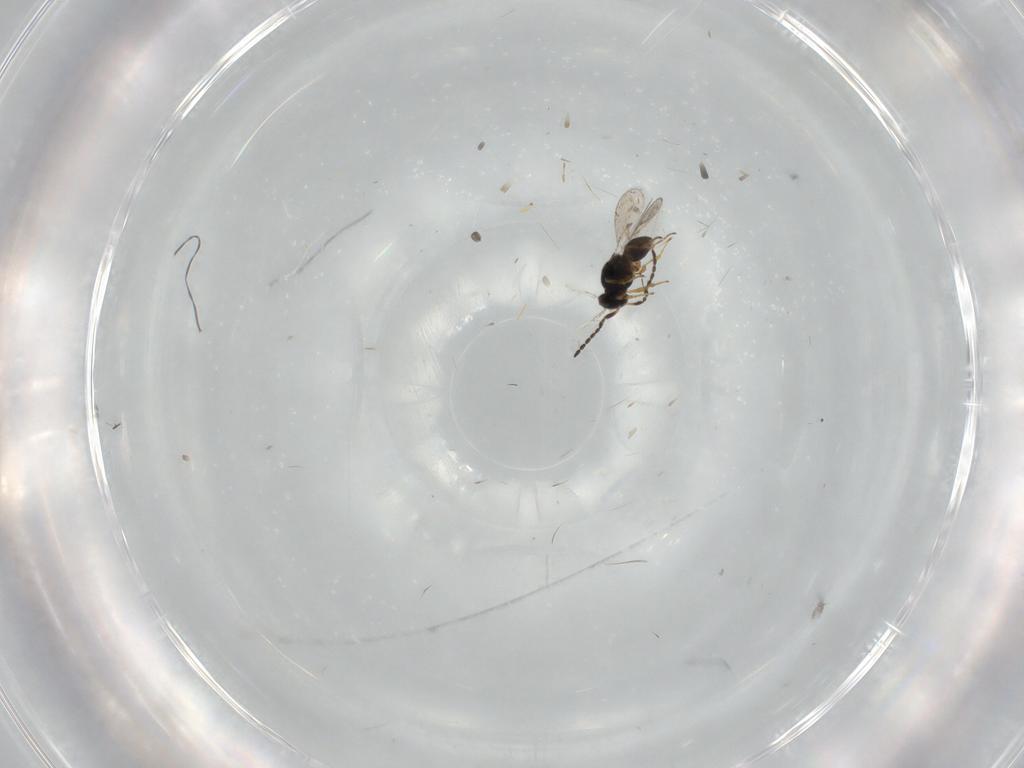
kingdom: Animalia
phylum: Arthropoda
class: Insecta
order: Hymenoptera
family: Platygastridae
